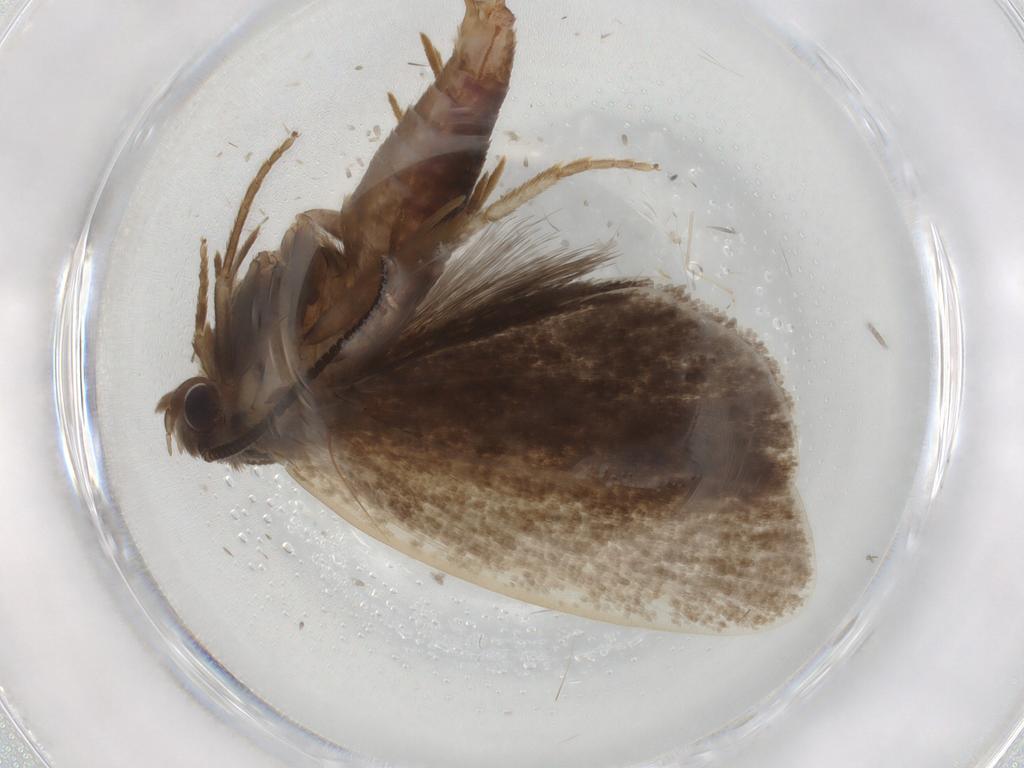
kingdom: Animalia
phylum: Arthropoda
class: Insecta
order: Lepidoptera
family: Tineidae
